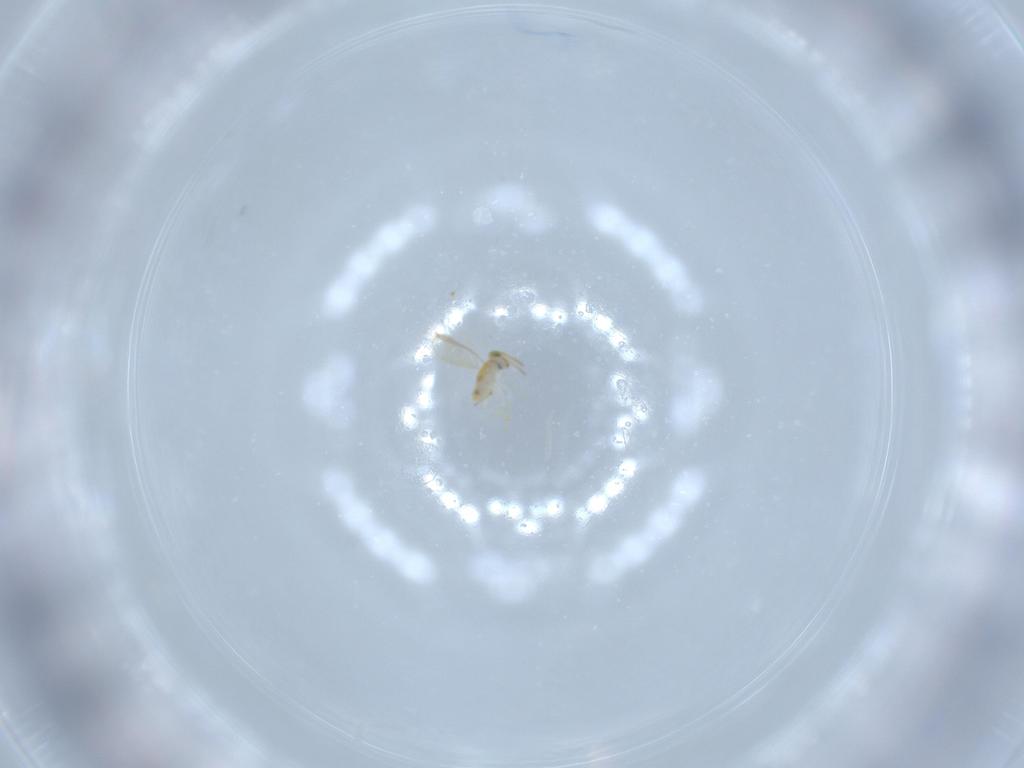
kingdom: Animalia
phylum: Arthropoda
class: Insecta
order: Hymenoptera
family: Aphelinidae
